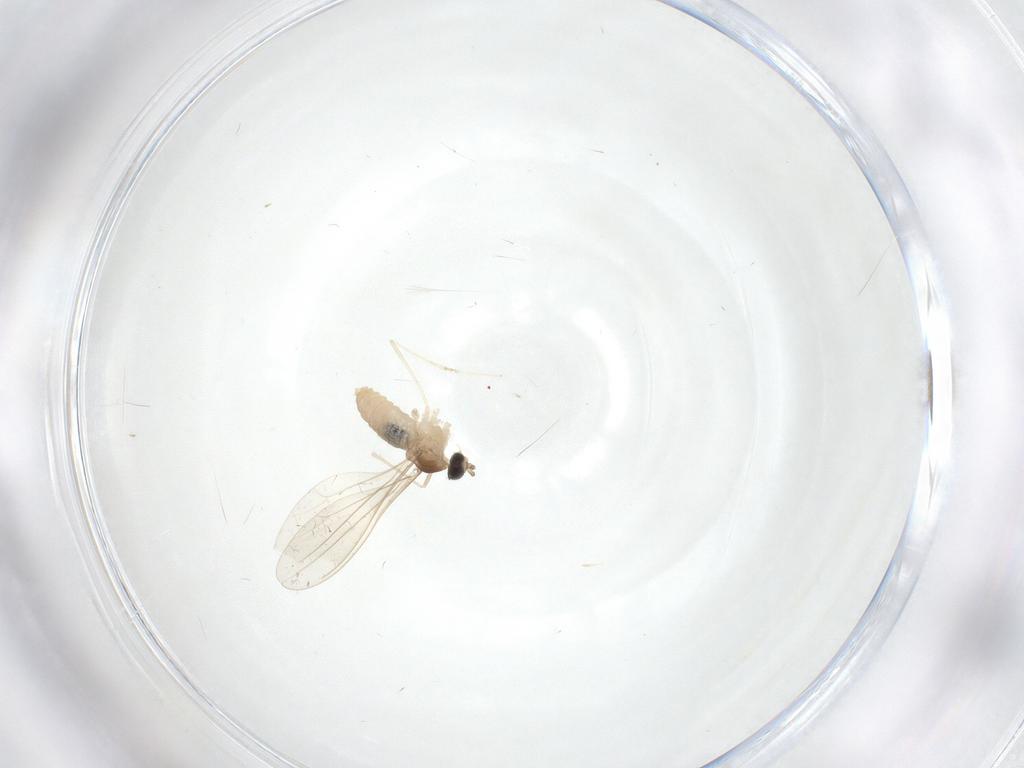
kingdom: Animalia
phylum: Arthropoda
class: Insecta
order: Diptera
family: Cecidomyiidae
